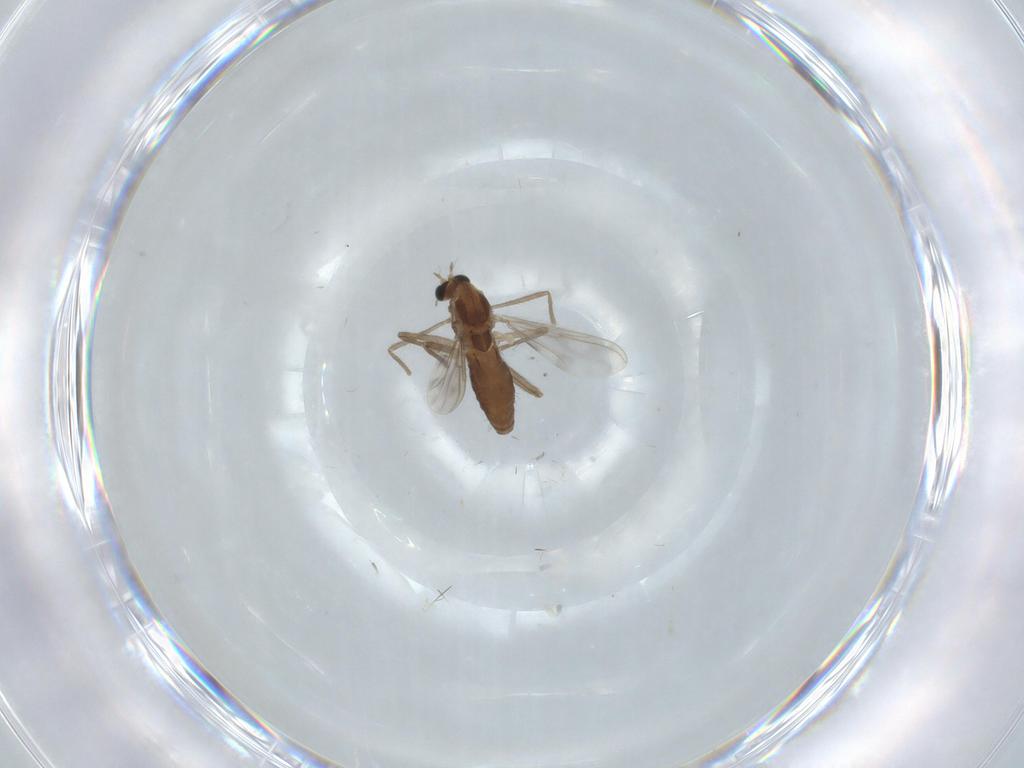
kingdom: Animalia
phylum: Arthropoda
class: Insecta
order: Diptera
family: Chironomidae
